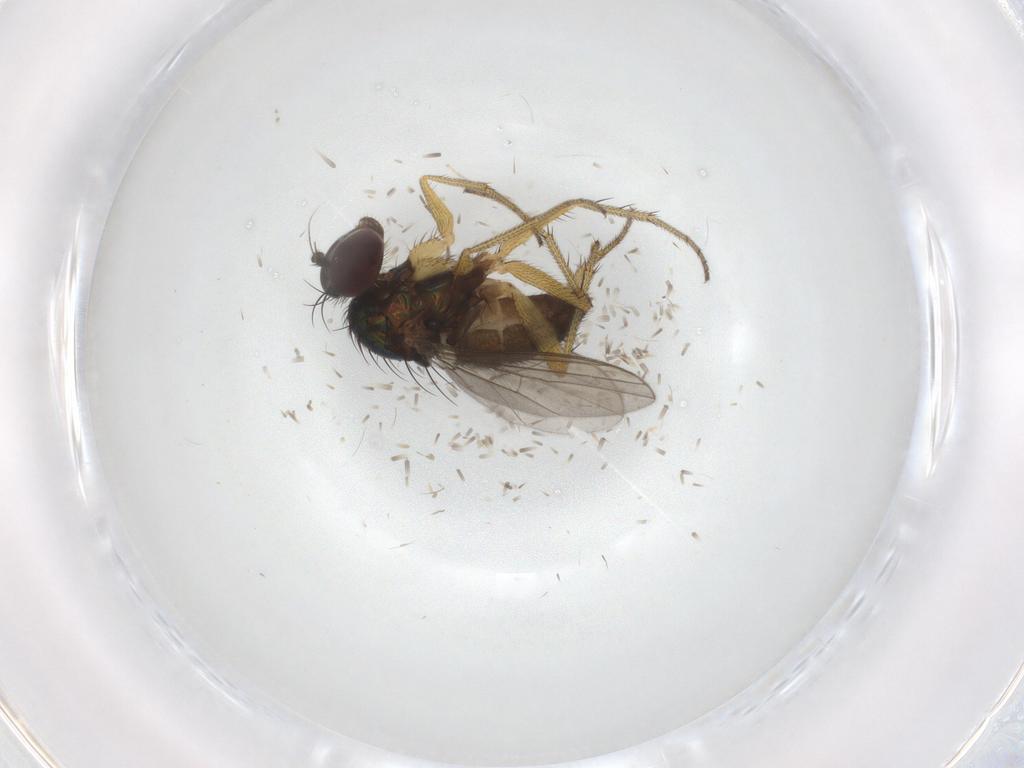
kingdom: Animalia
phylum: Arthropoda
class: Insecta
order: Diptera
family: Chironomidae
